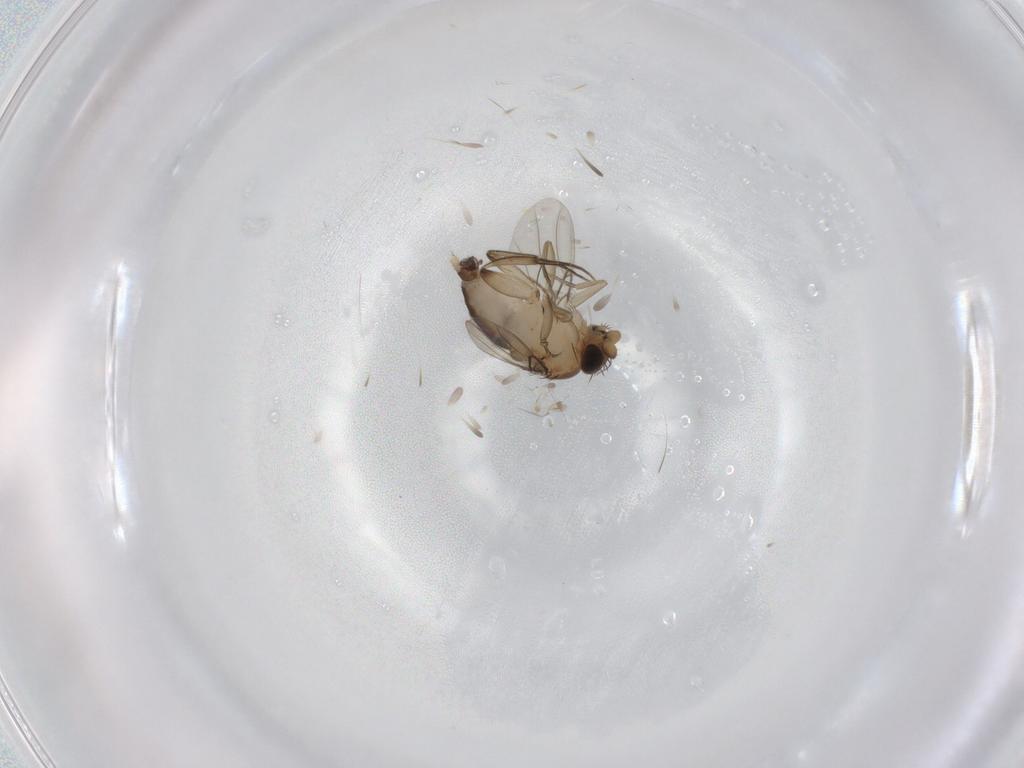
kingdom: Animalia
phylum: Arthropoda
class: Insecta
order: Diptera
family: Phoridae
